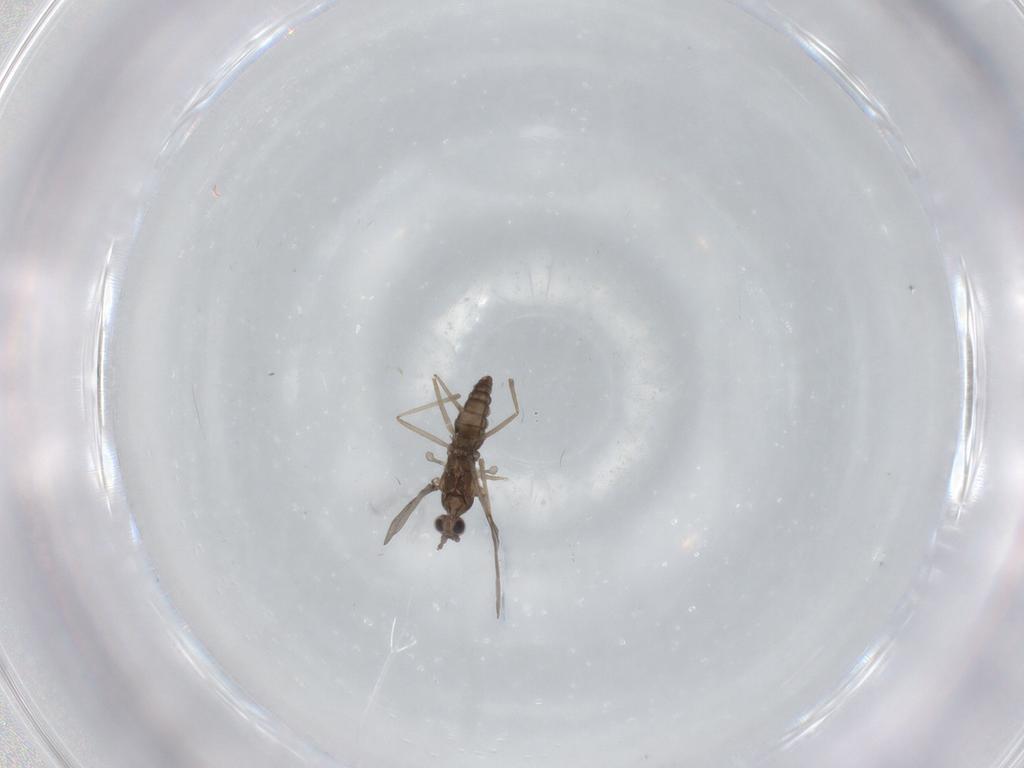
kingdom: Animalia
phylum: Arthropoda
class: Insecta
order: Diptera
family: Cecidomyiidae
